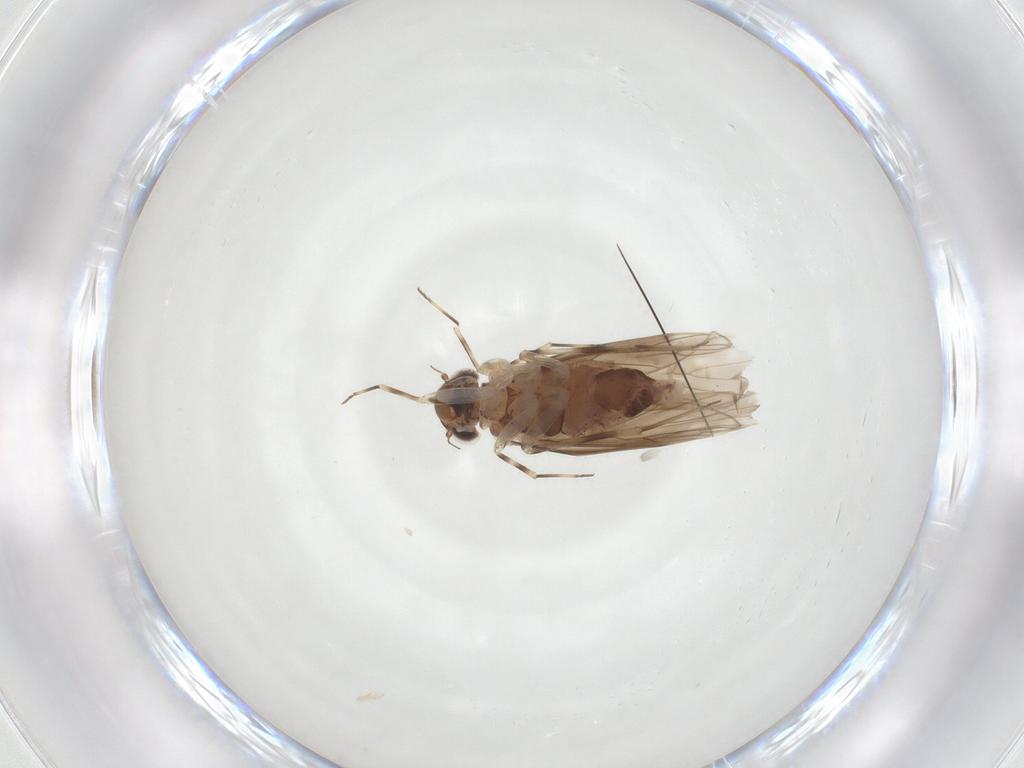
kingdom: Animalia
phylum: Arthropoda
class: Insecta
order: Psocodea
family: Amphientomidae
